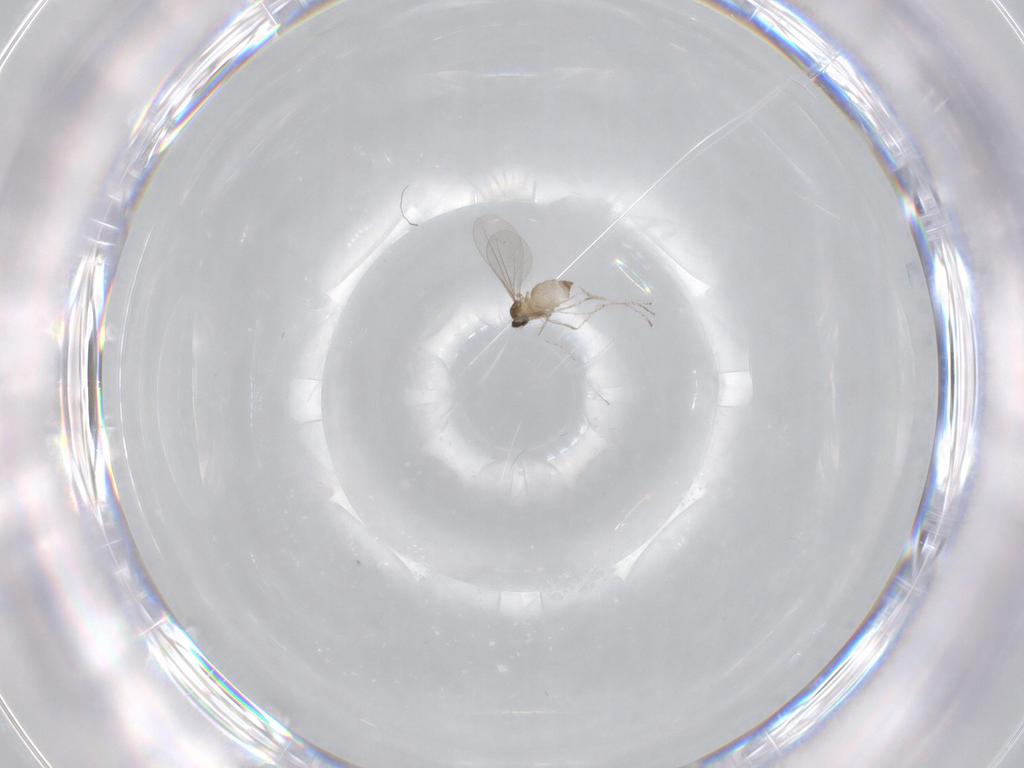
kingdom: Animalia
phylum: Arthropoda
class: Insecta
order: Diptera
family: Cecidomyiidae
